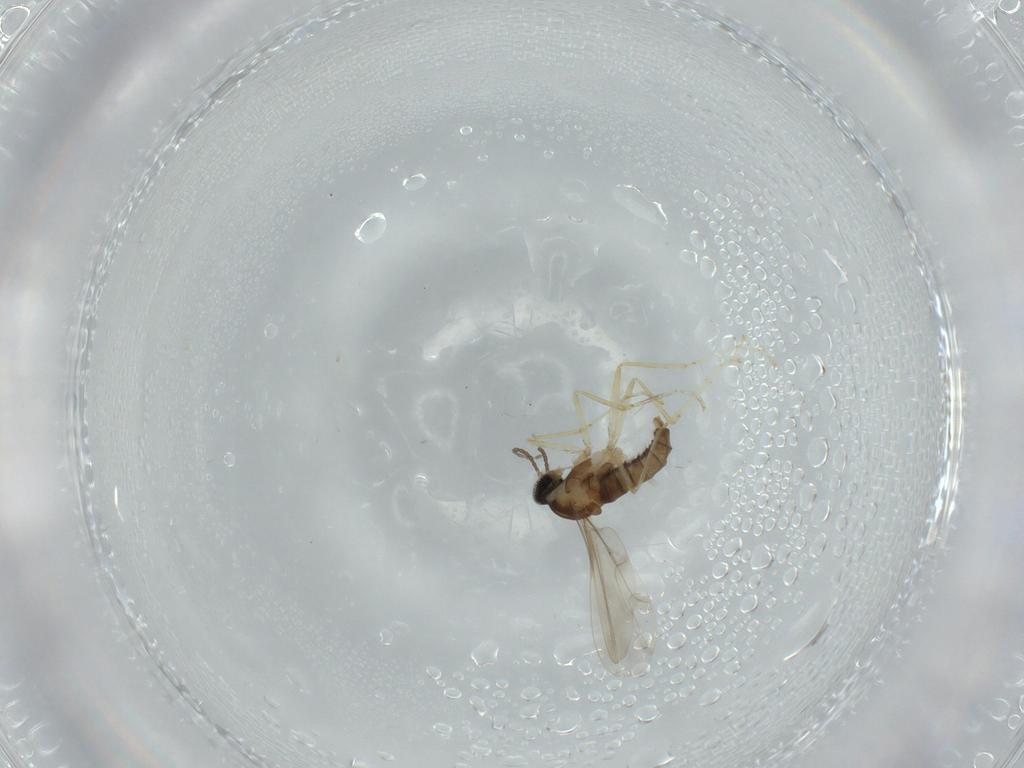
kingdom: Animalia
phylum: Arthropoda
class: Insecta
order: Diptera
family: Cecidomyiidae
